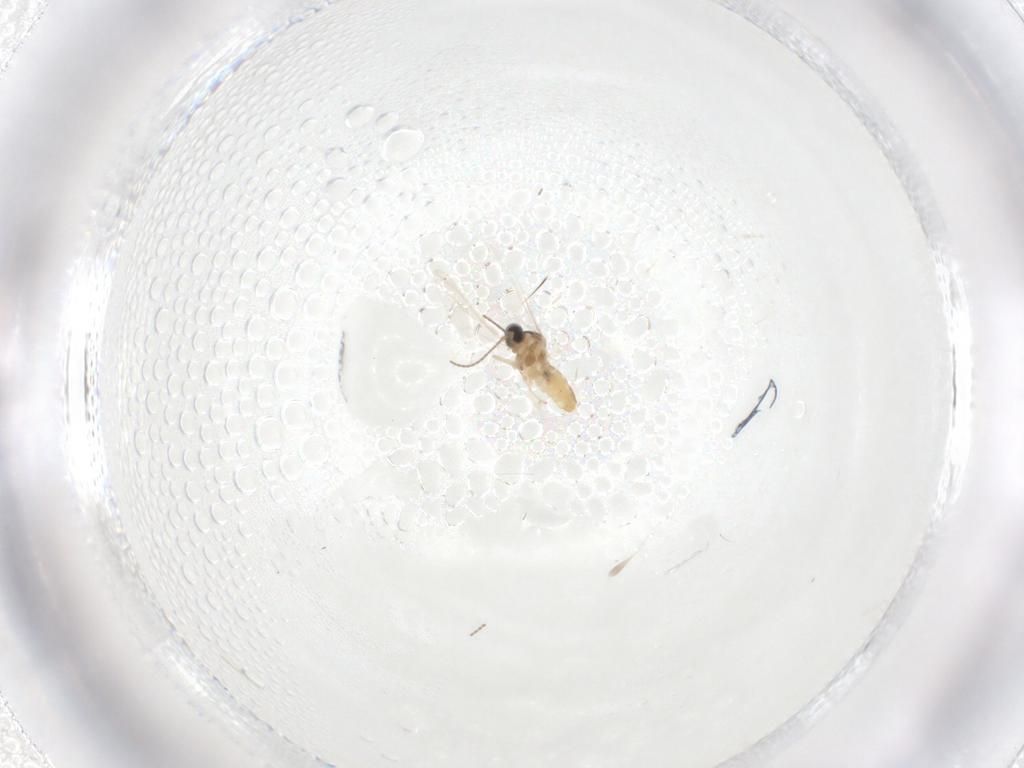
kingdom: Animalia
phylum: Arthropoda
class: Insecta
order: Diptera
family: Cecidomyiidae
